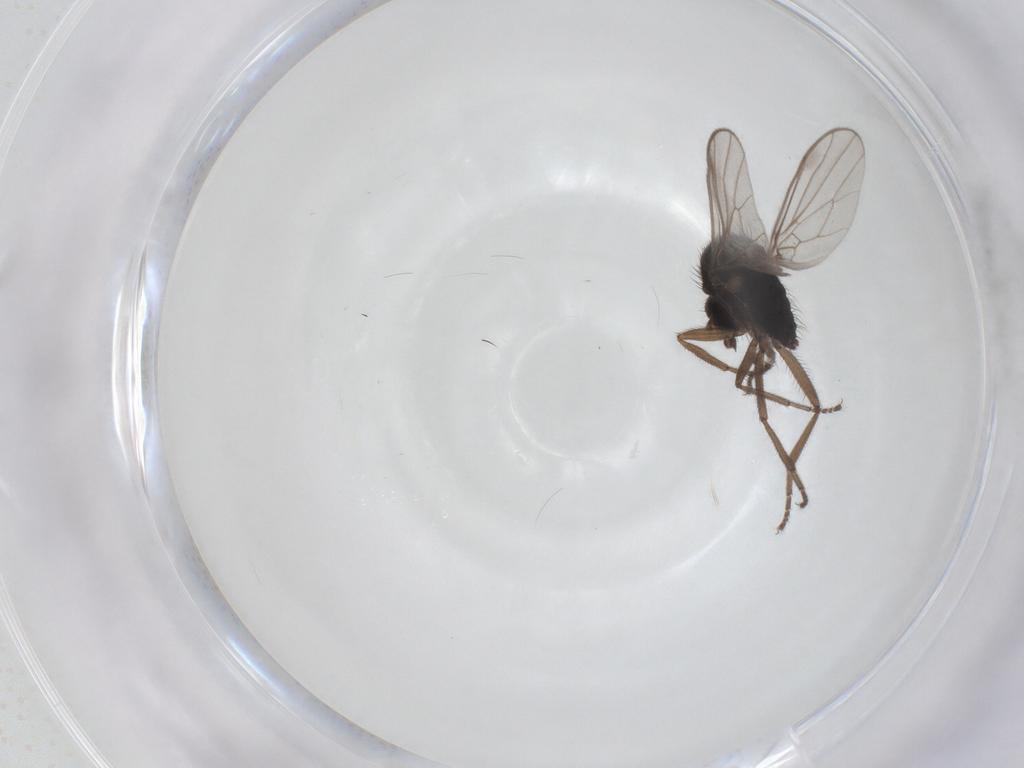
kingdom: Animalia
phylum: Arthropoda
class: Insecta
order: Diptera
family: Hybotidae
